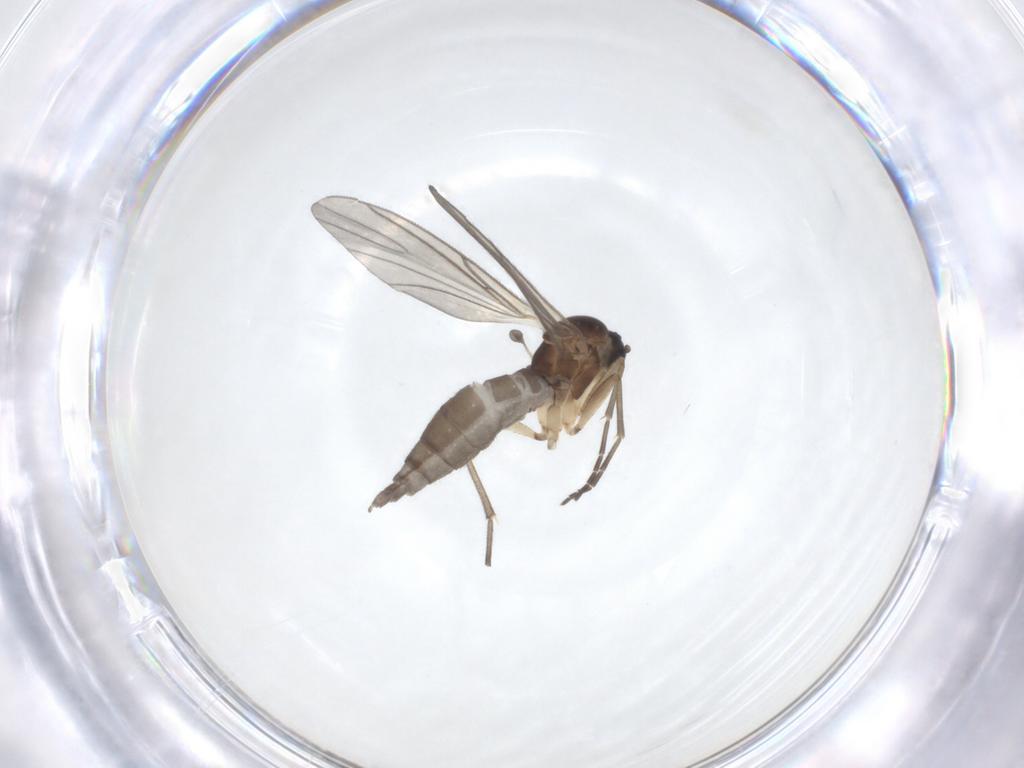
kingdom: Animalia
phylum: Arthropoda
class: Insecta
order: Diptera
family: Sciaridae
